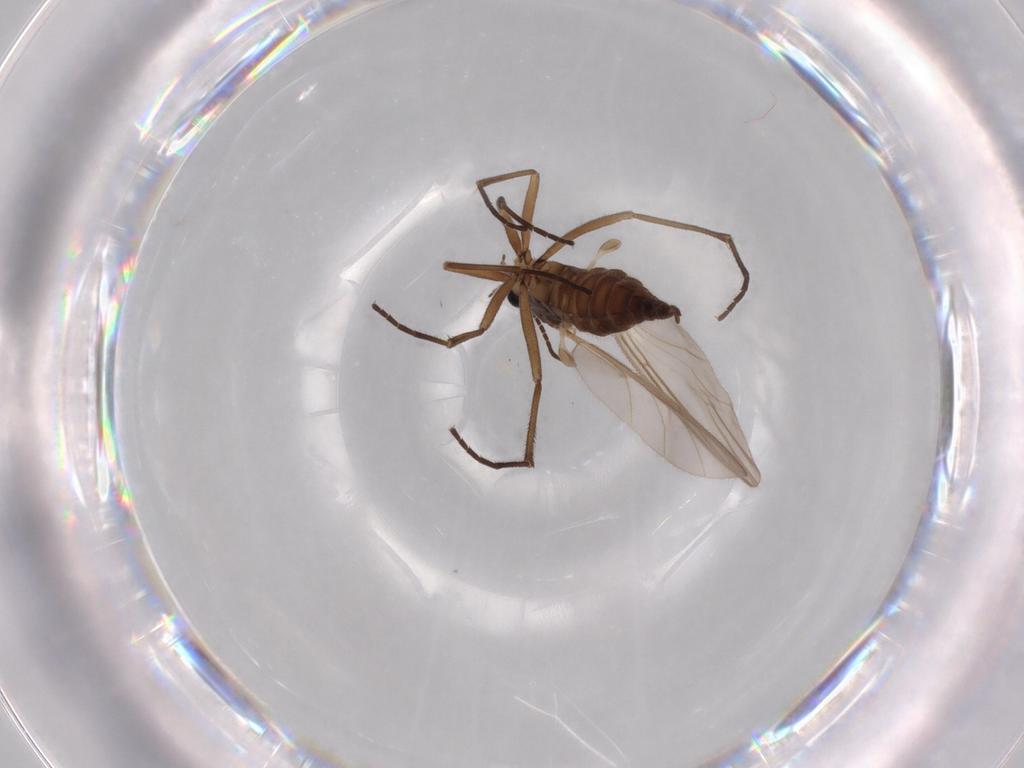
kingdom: Animalia
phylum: Arthropoda
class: Insecta
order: Diptera
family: Sciaridae
